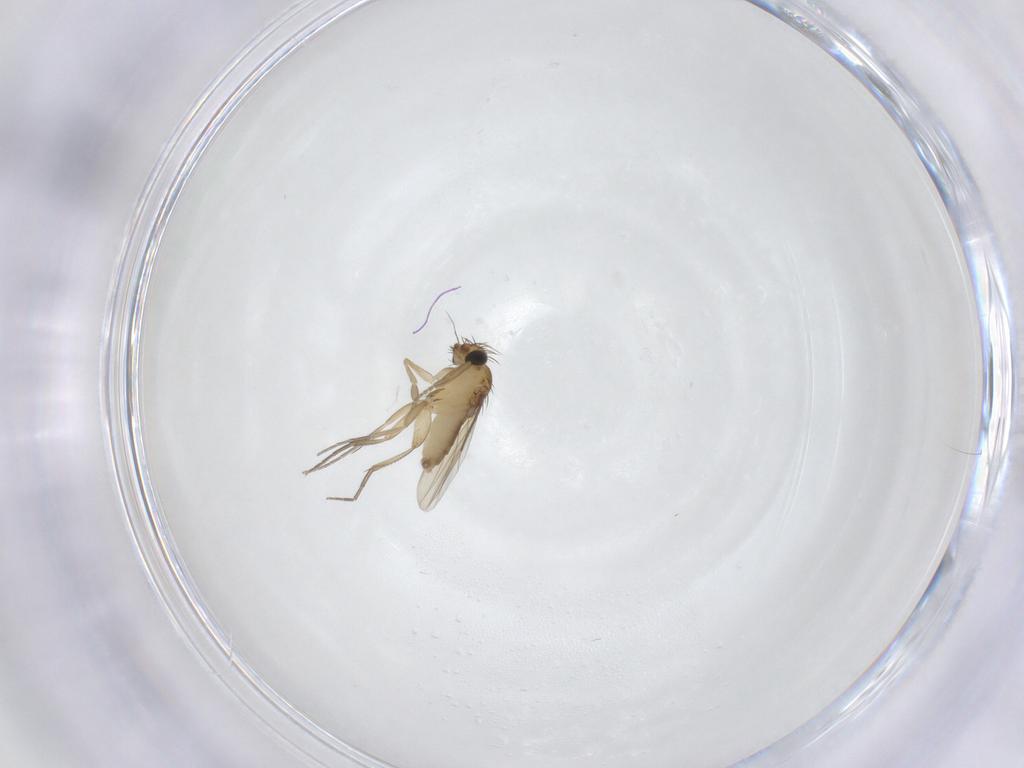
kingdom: Animalia
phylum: Arthropoda
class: Insecta
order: Diptera
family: Phoridae
